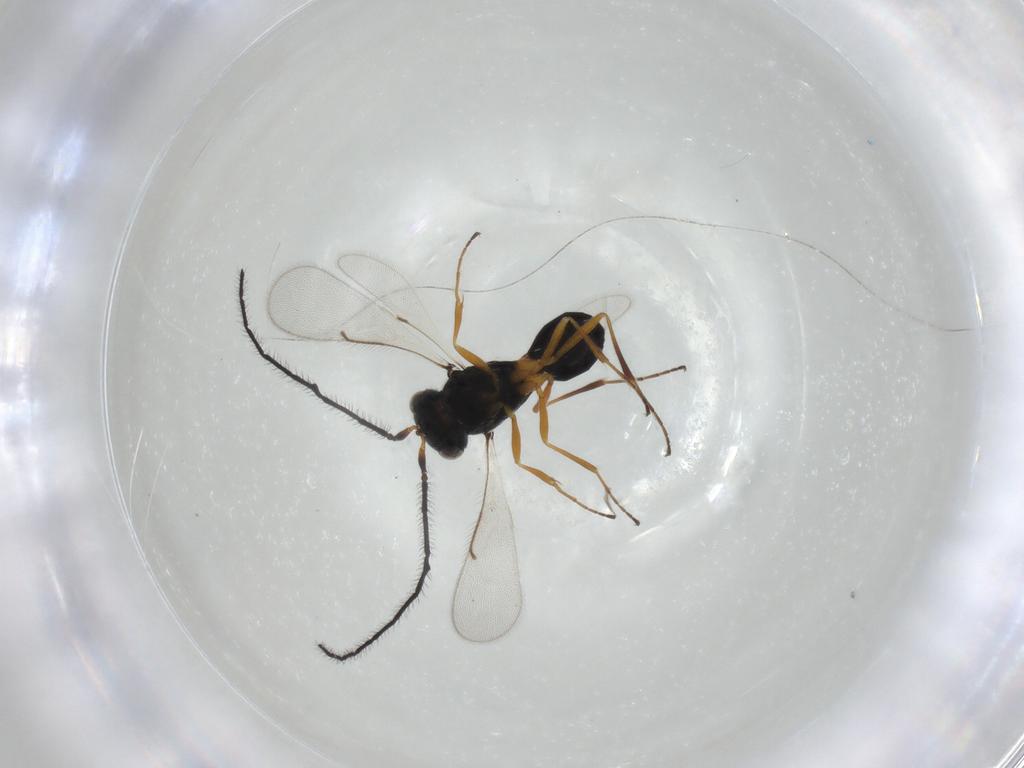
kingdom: Animalia
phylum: Arthropoda
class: Insecta
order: Hymenoptera
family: Scelionidae
